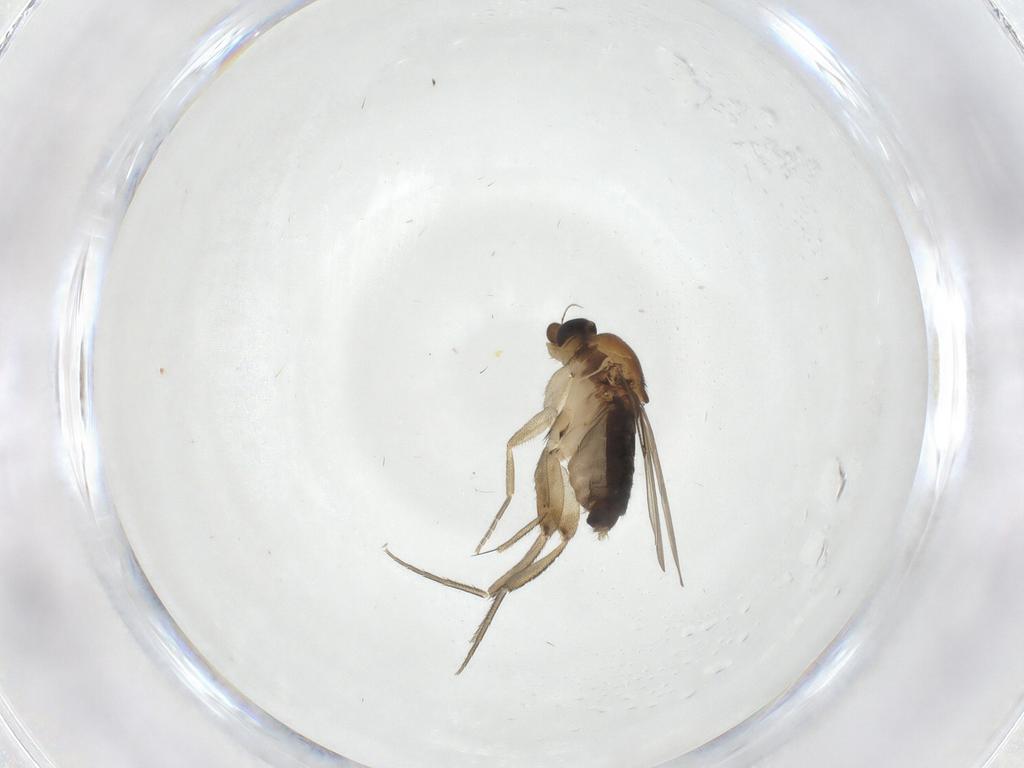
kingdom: Animalia
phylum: Arthropoda
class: Insecta
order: Diptera
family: Phoridae
